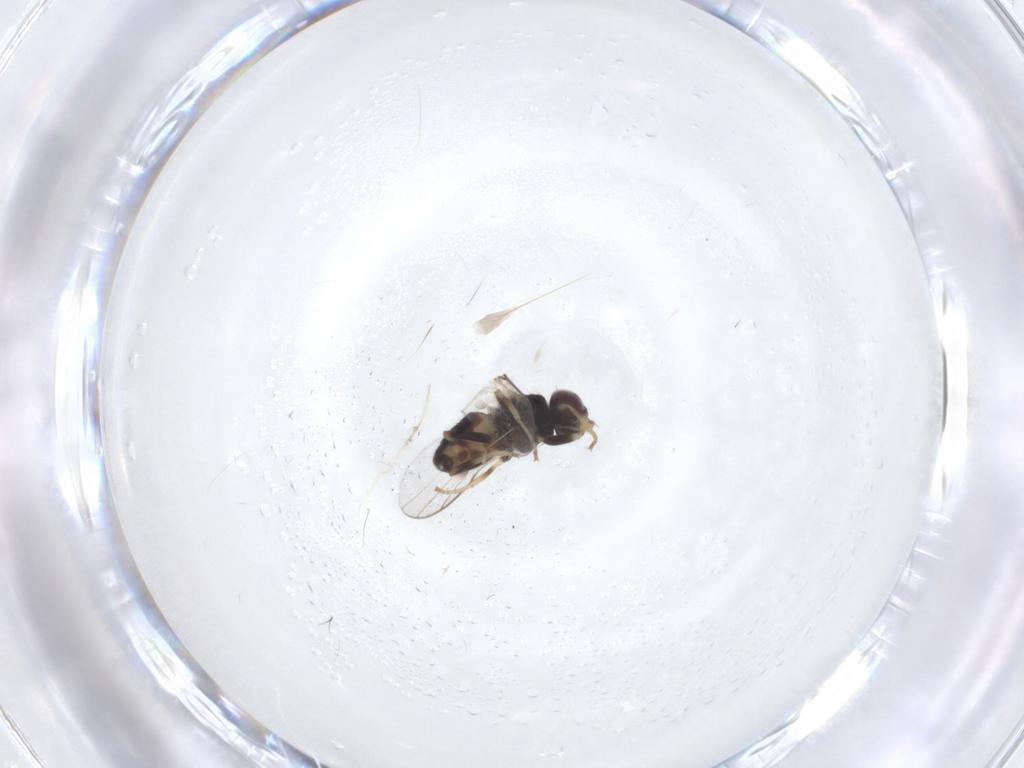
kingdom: Animalia
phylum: Arthropoda
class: Insecta
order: Diptera
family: Chloropidae
